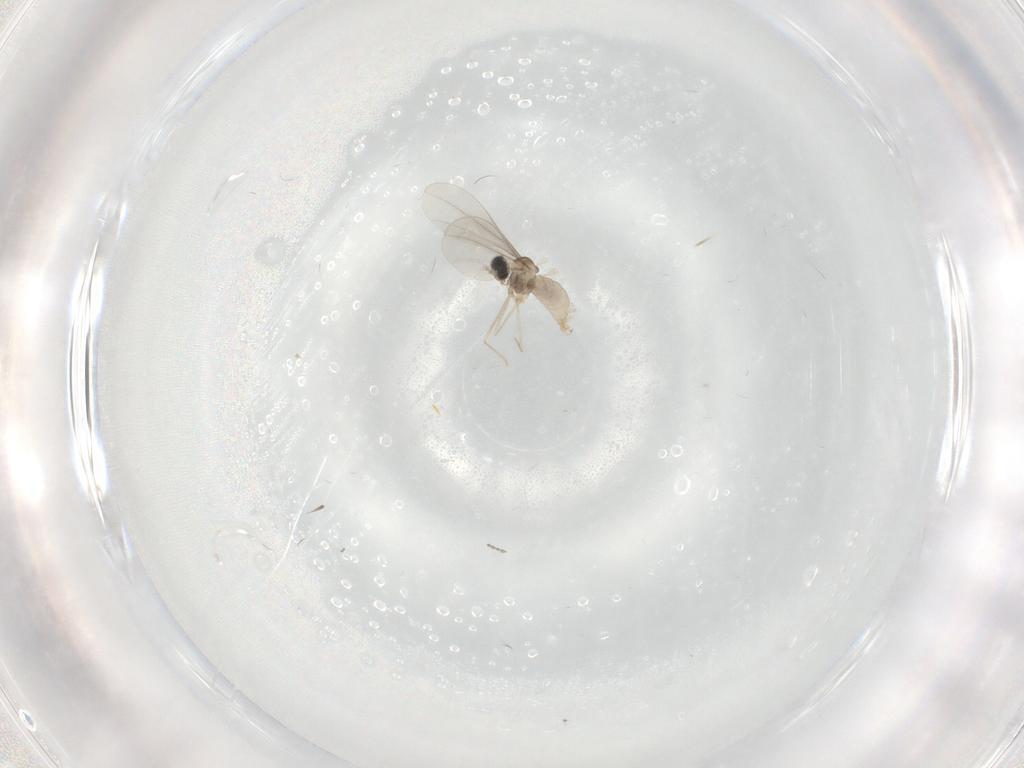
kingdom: Animalia
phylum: Arthropoda
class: Insecta
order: Diptera
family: Cecidomyiidae
